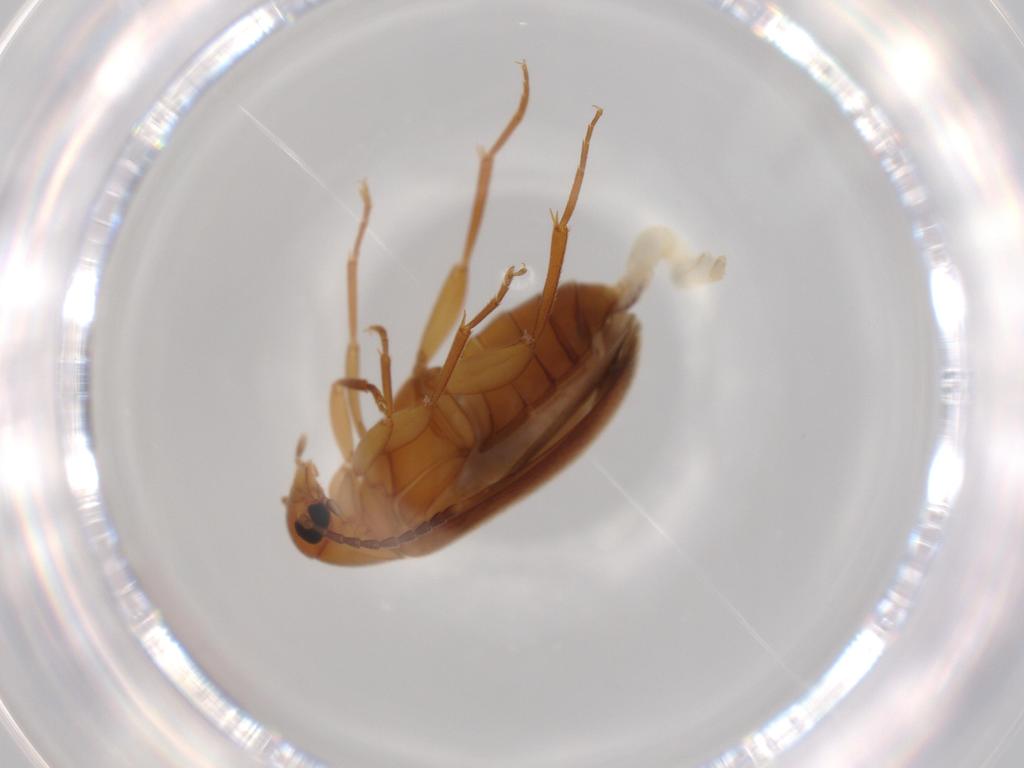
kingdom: Animalia
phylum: Arthropoda
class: Insecta
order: Coleoptera
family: Scraptiidae
